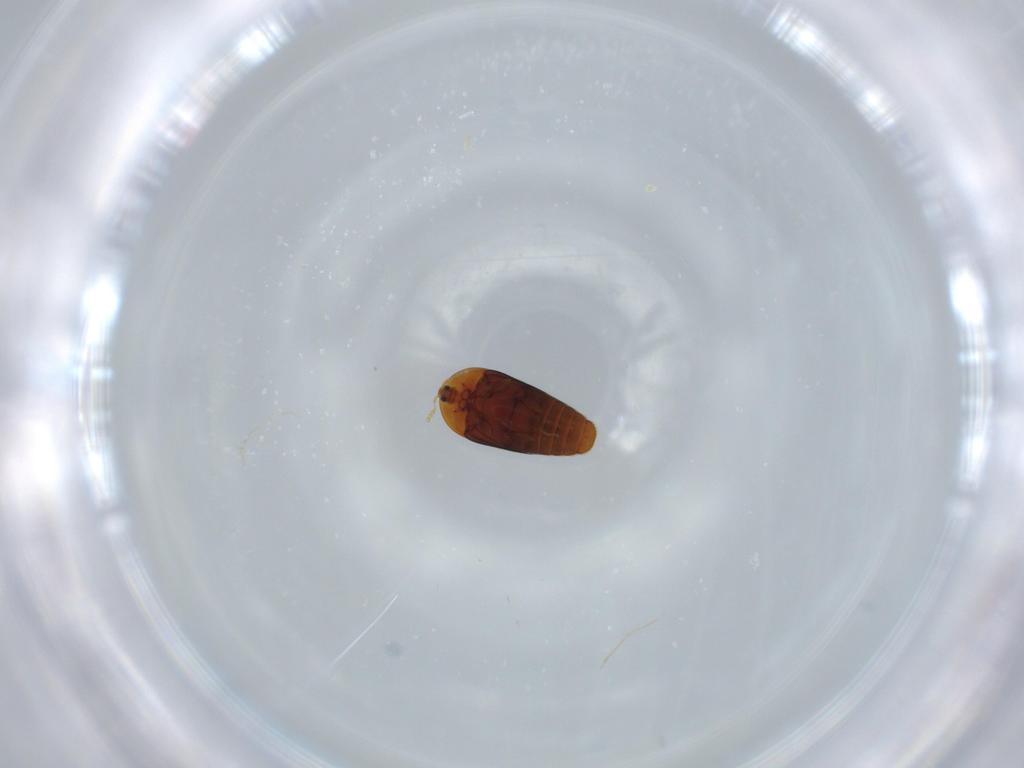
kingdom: Animalia
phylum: Arthropoda
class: Insecta
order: Coleoptera
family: Corylophidae
